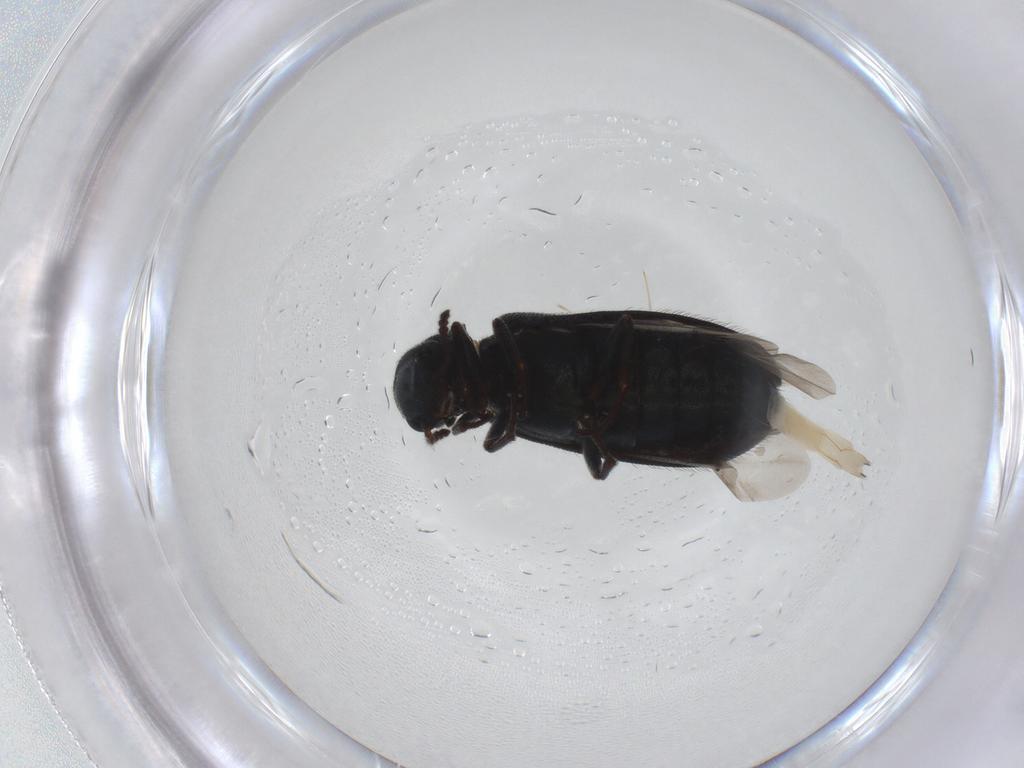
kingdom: Animalia
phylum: Arthropoda
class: Insecta
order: Coleoptera
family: Melyridae
